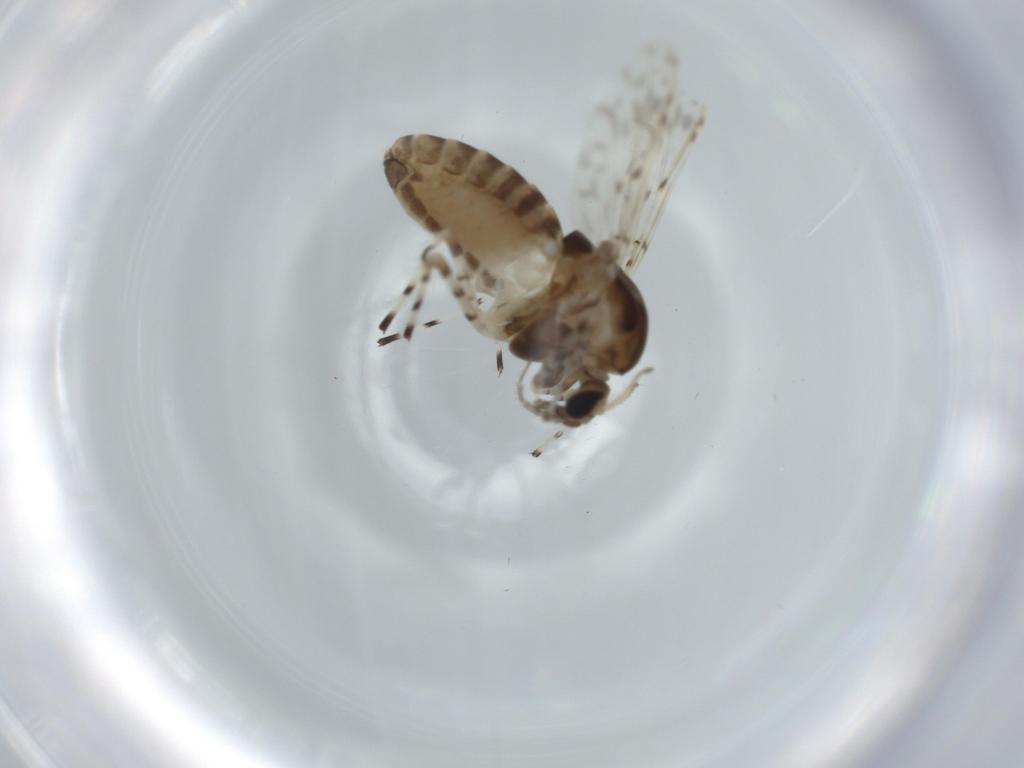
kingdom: Animalia
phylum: Arthropoda
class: Insecta
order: Diptera
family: Chironomidae
